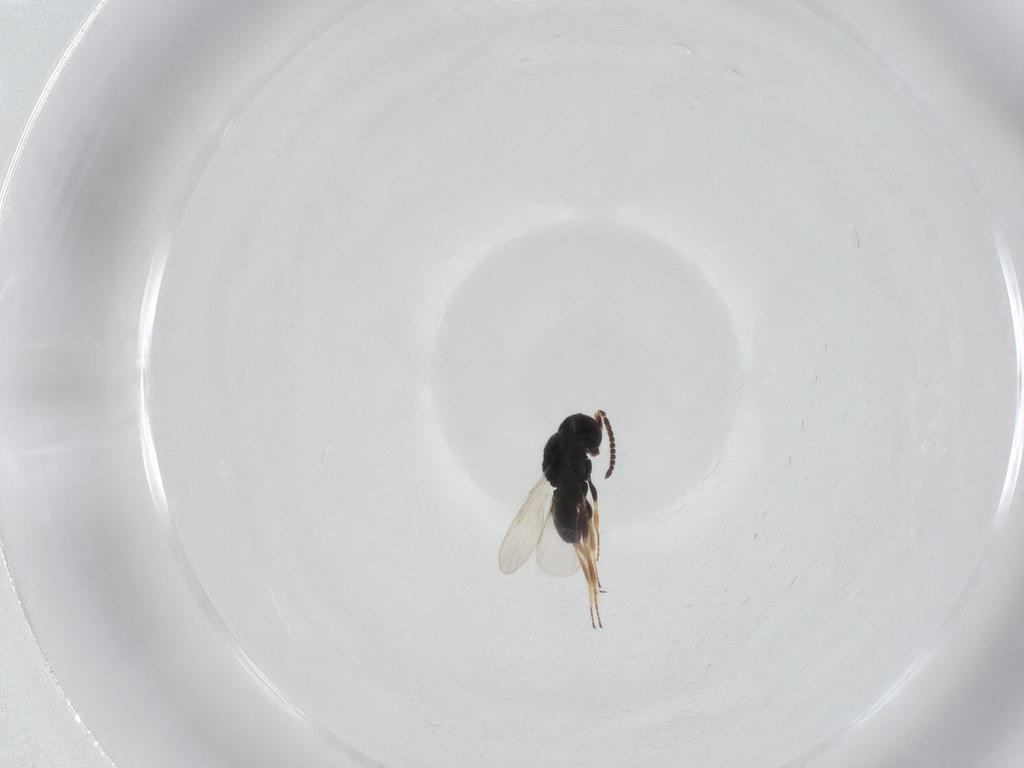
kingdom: Animalia
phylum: Arthropoda
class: Insecta
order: Hymenoptera
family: Scelionidae
